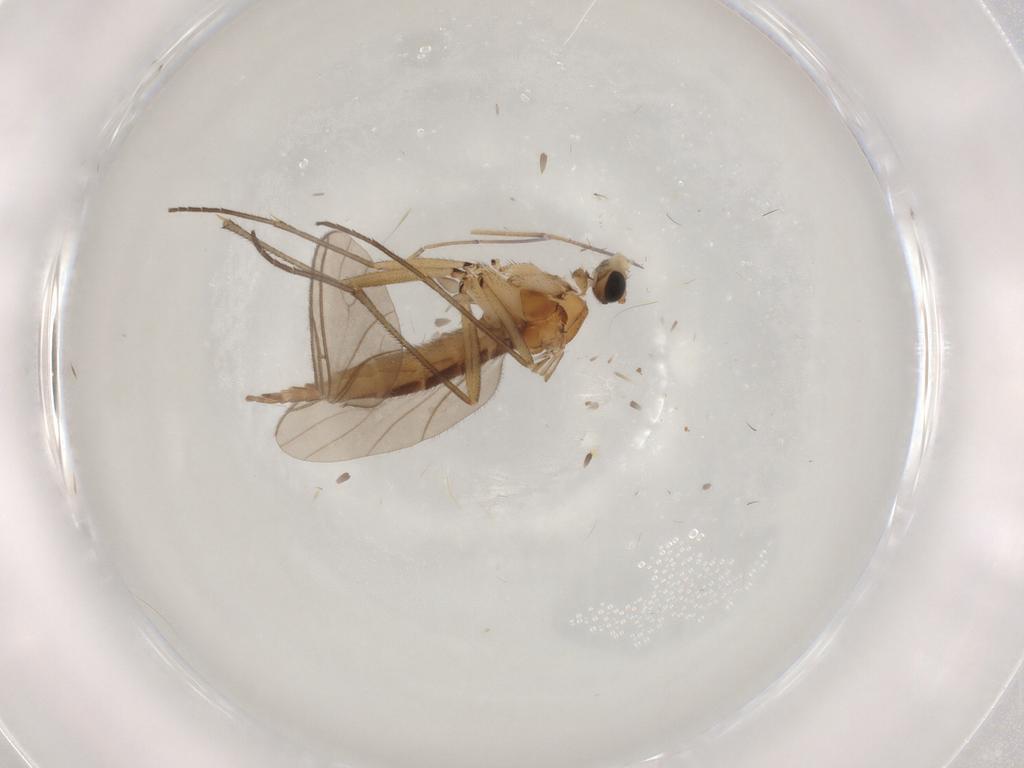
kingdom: Animalia
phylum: Arthropoda
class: Insecta
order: Diptera
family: Sciaridae
